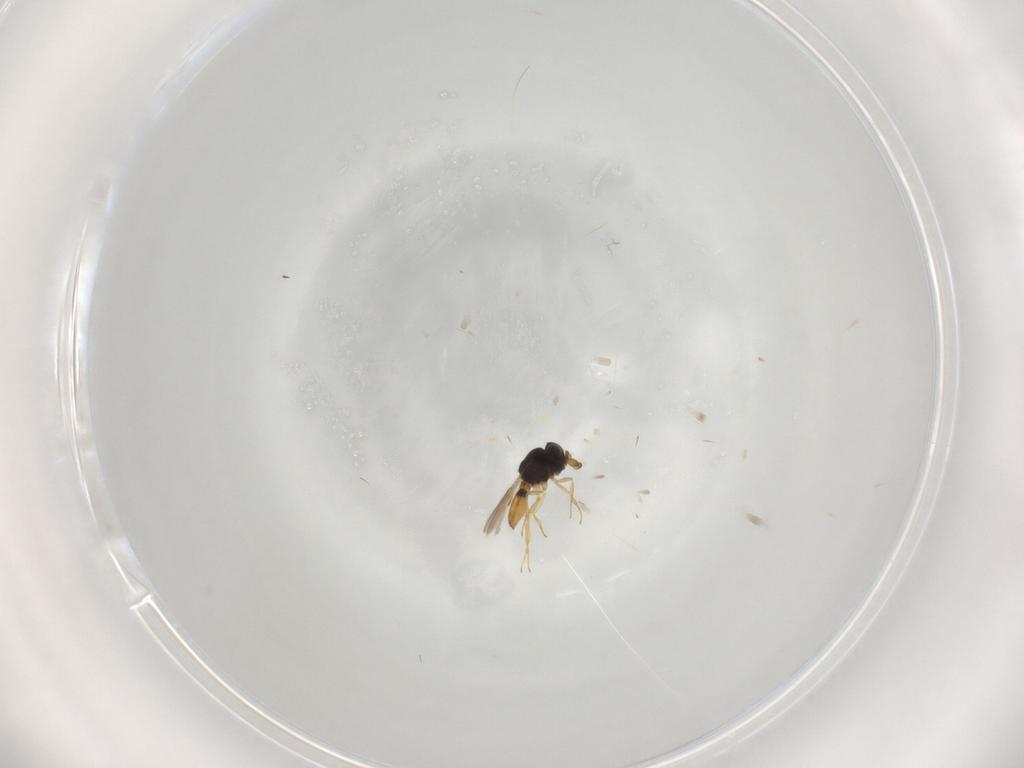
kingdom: Animalia
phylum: Arthropoda
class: Insecta
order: Hymenoptera
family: Scelionidae
